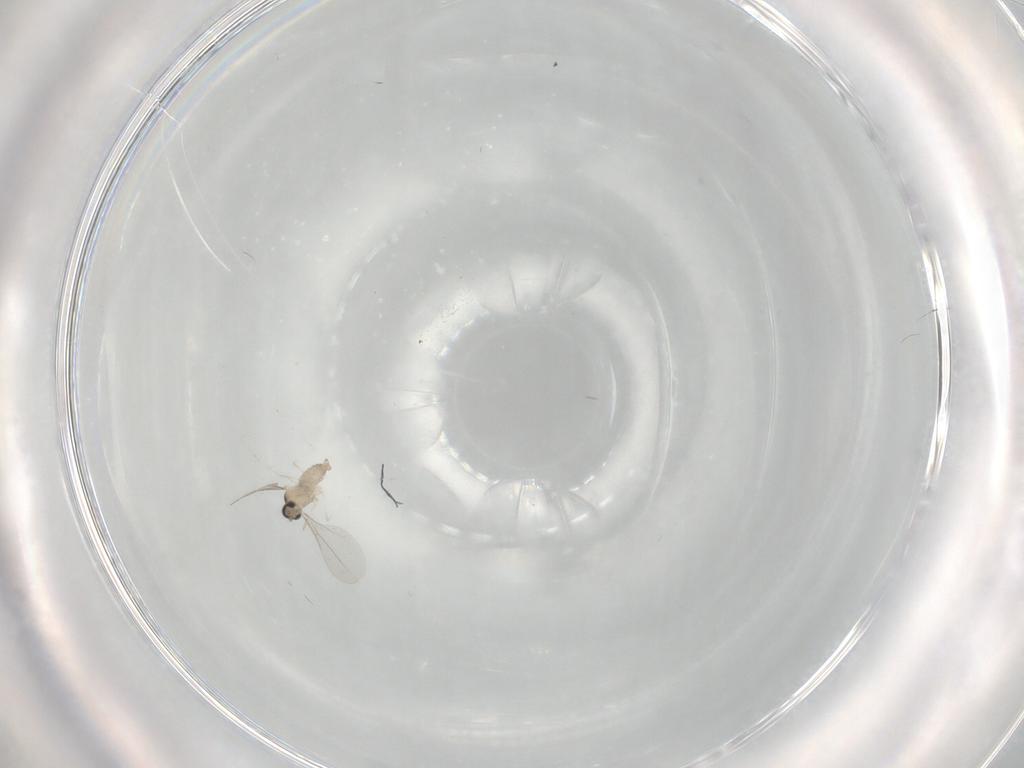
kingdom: Animalia
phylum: Arthropoda
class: Insecta
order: Diptera
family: Cecidomyiidae
